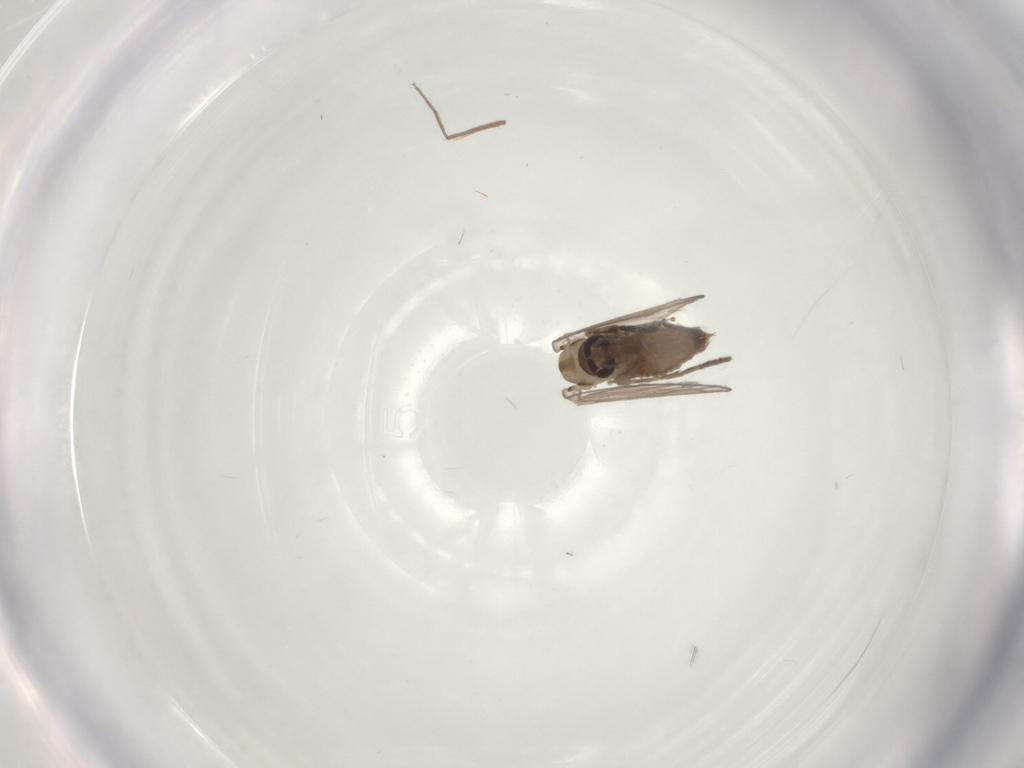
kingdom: Animalia
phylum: Arthropoda
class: Insecta
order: Diptera
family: Psychodidae
